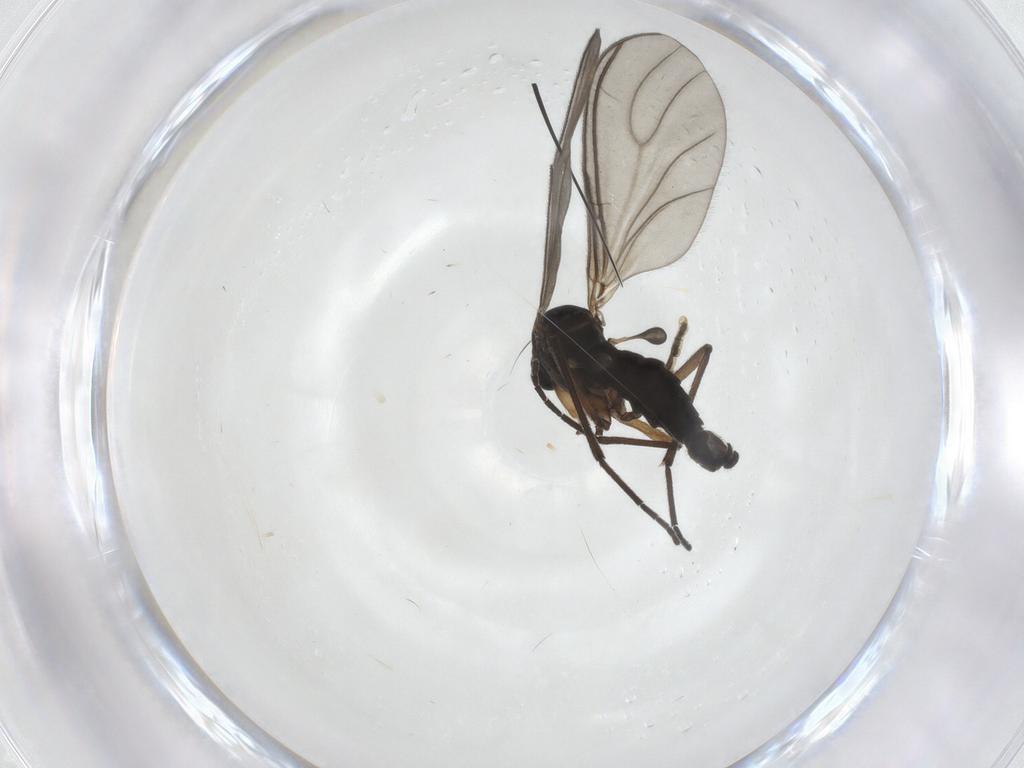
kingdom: Animalia
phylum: Arthropoda
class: Insecta
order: Diptera
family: Sciaridae
